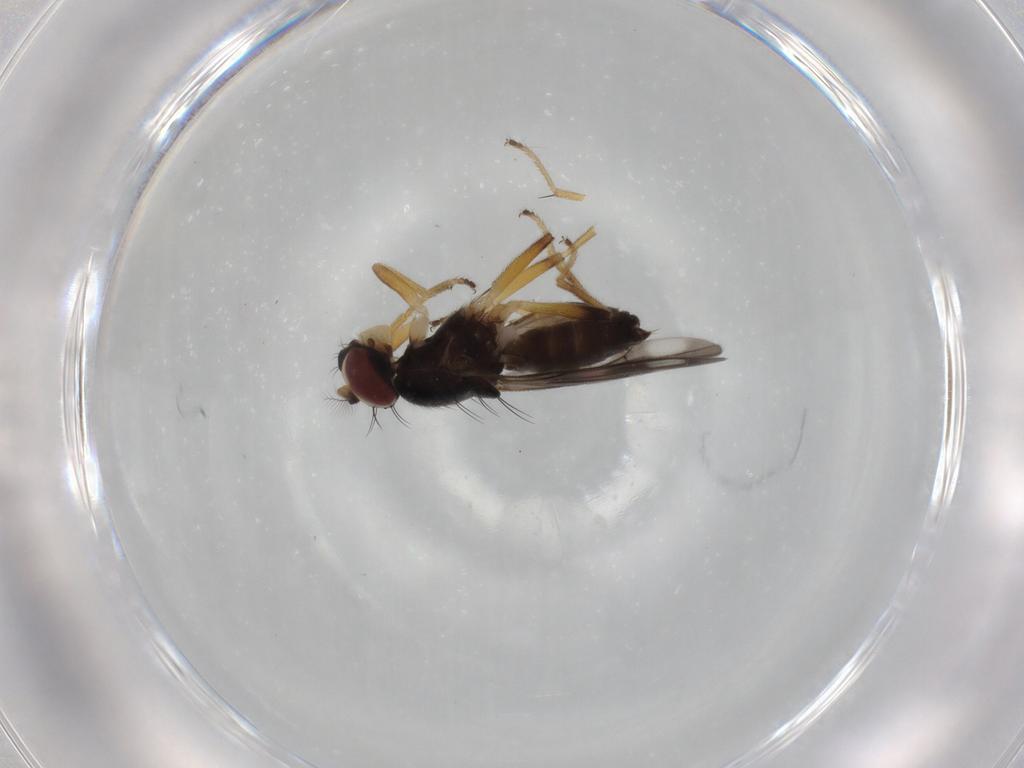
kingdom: Animalia
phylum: Arthropoda
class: Insecta
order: Diptera
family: Periscelididae
